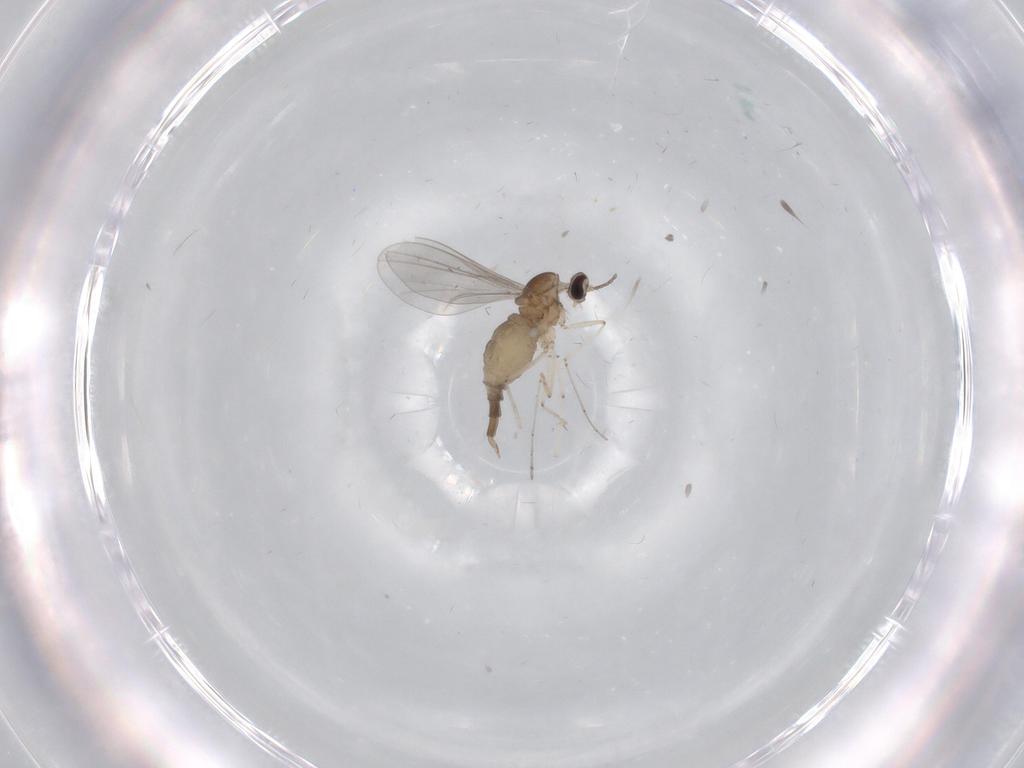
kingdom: Animalia
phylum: Arthropoda
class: Insecta
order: Diptera
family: Cecidomyiidae
